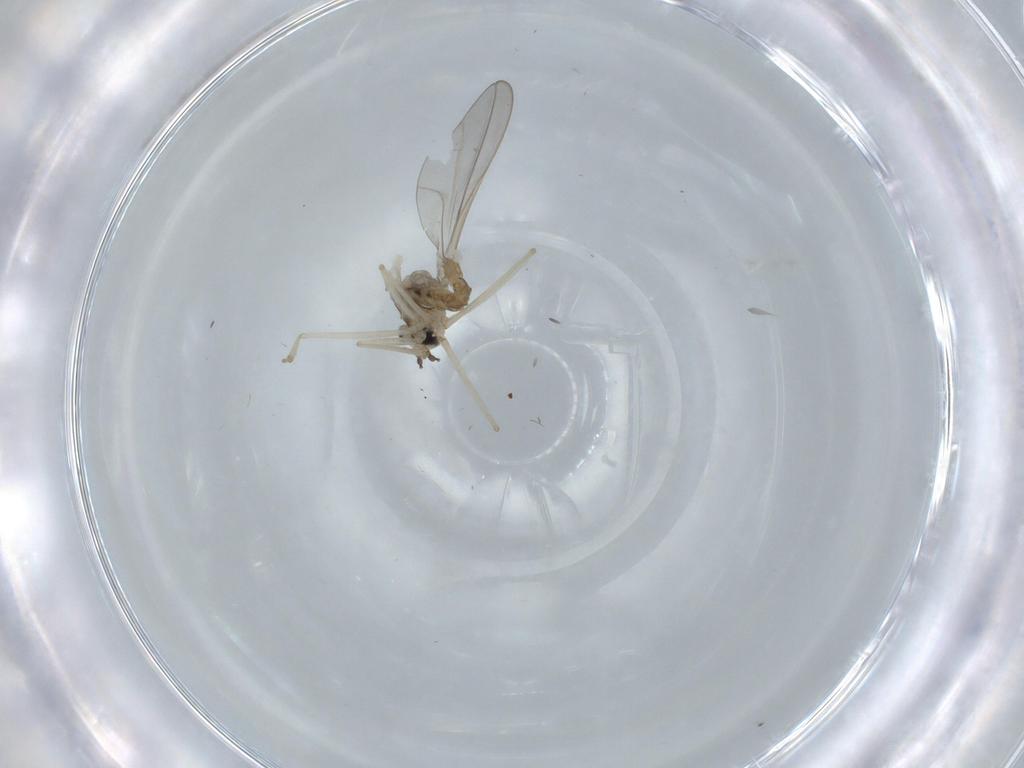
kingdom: Animalia
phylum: Arthropoda
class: Insecta
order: Diptera
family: Cecidomyiidae
